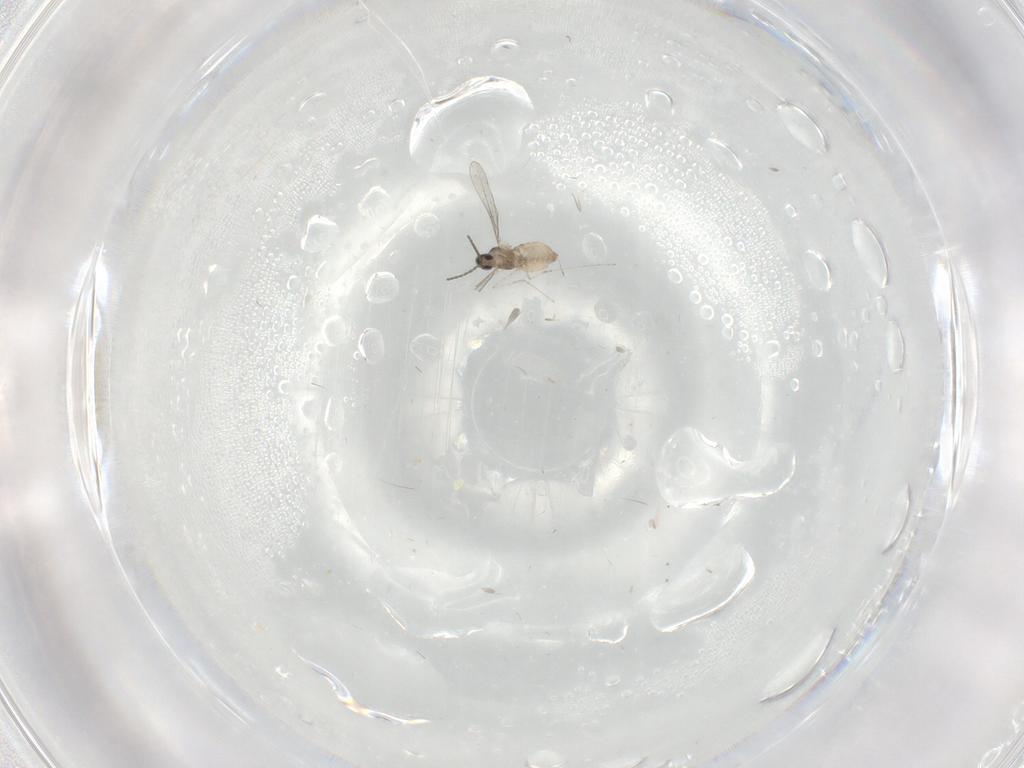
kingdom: Animalia
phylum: Arthropoda
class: Insecta
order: Diptera
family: Cecidomyiidae
